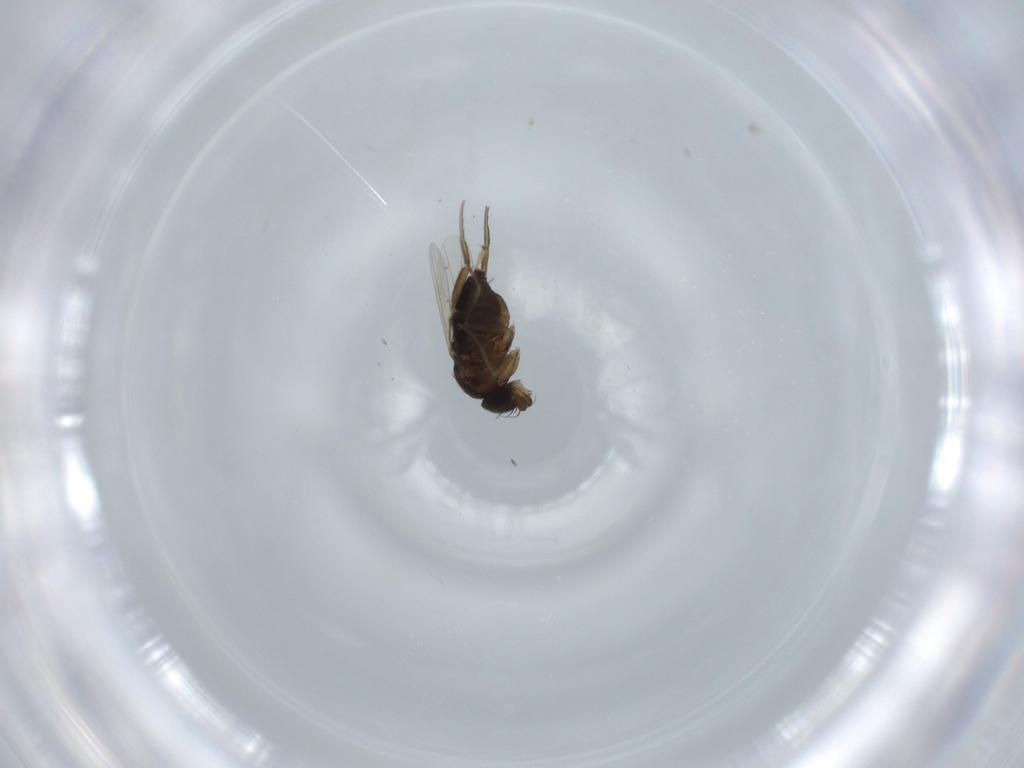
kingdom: Animalia
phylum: Arthropoda
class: Insecta
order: Diptera
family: Phoridae
